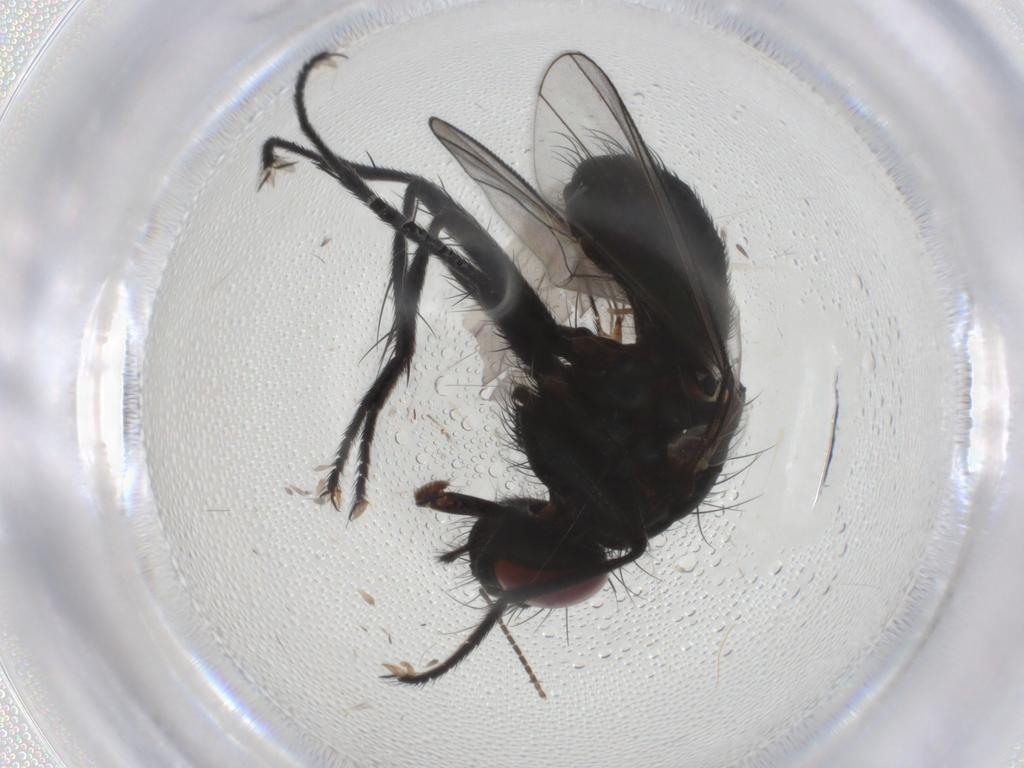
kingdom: Animalia
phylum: Arthropoda
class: Insecta
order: Diptera
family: Muscidae
